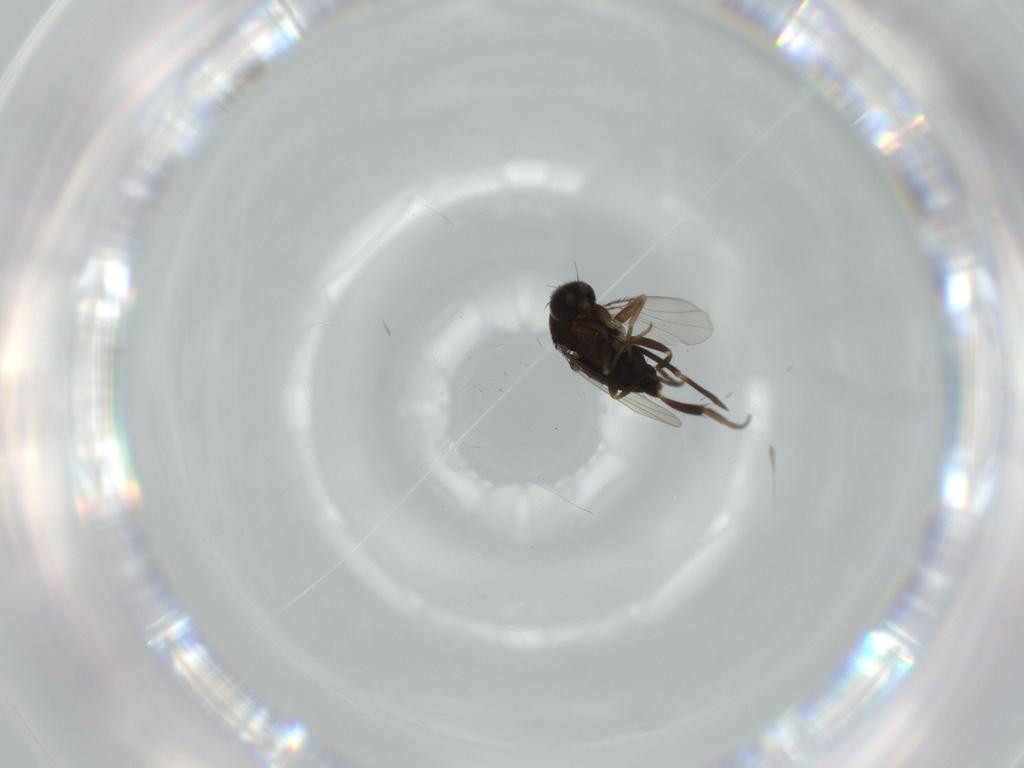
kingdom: Animalia
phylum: Arthropoda
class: Insecta
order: Diptera
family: Phoridae
